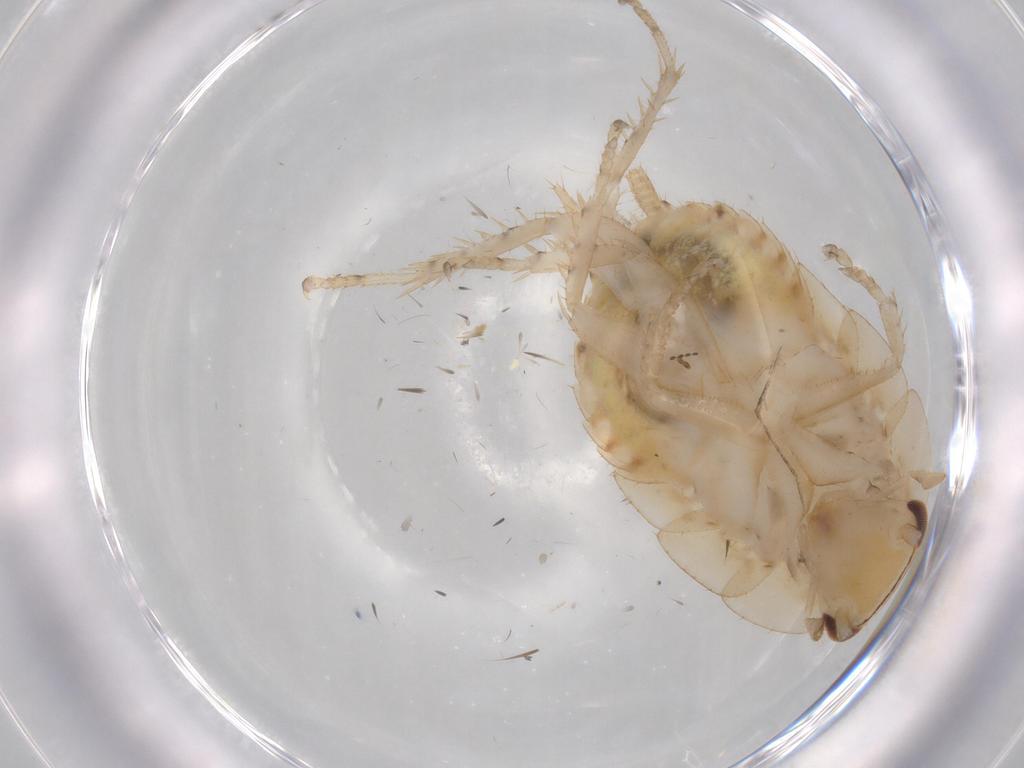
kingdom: Animalia
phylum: Arthropoda
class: Insecta
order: Blattodea
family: Ectobiidae
